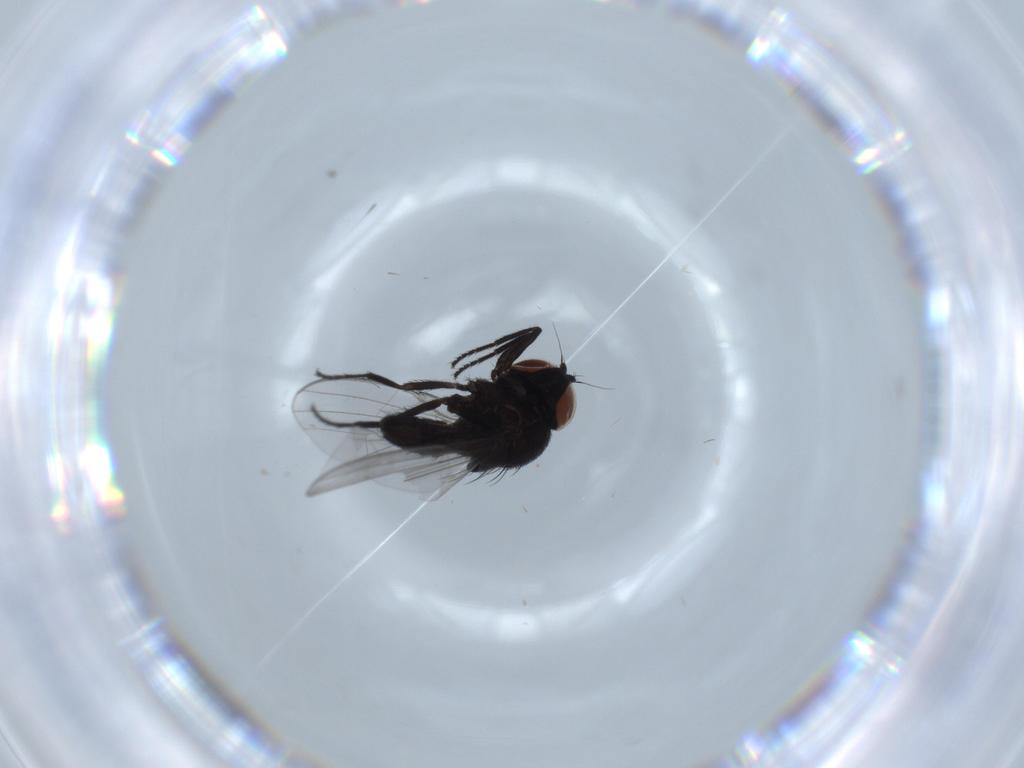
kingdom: Animalia
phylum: Arthropoda
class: Insecta
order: Diptera
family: Milichiidae
